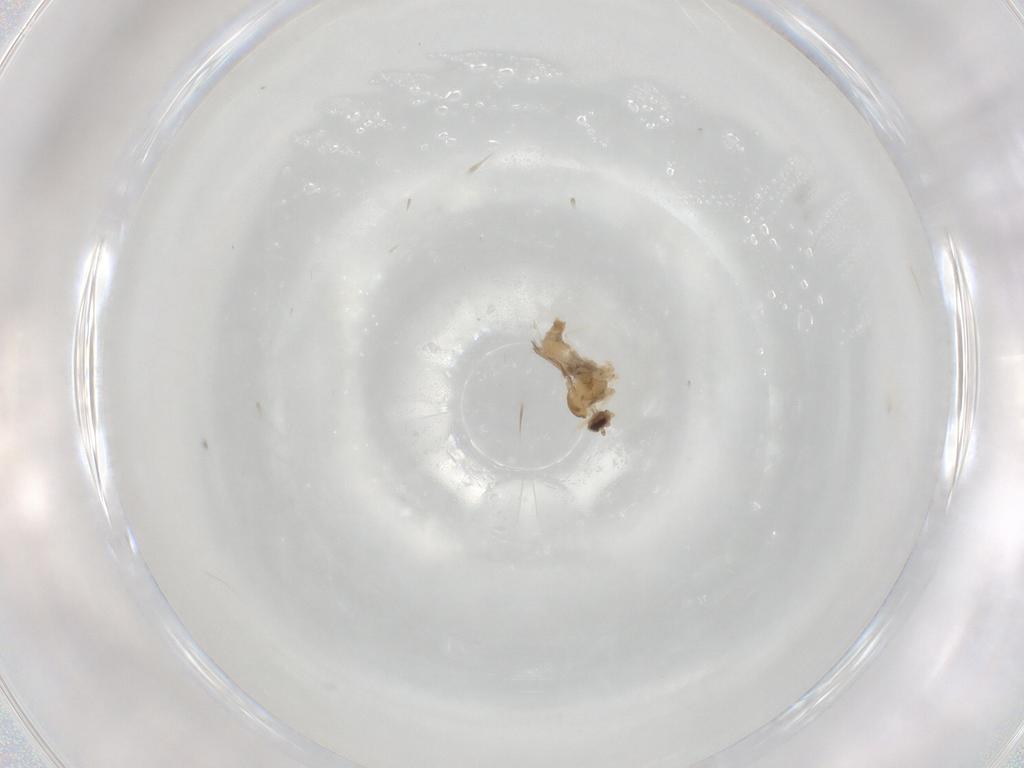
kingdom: Animalia
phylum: Arthropoda
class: Insecta
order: Diptera
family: Cecidomyiidae
